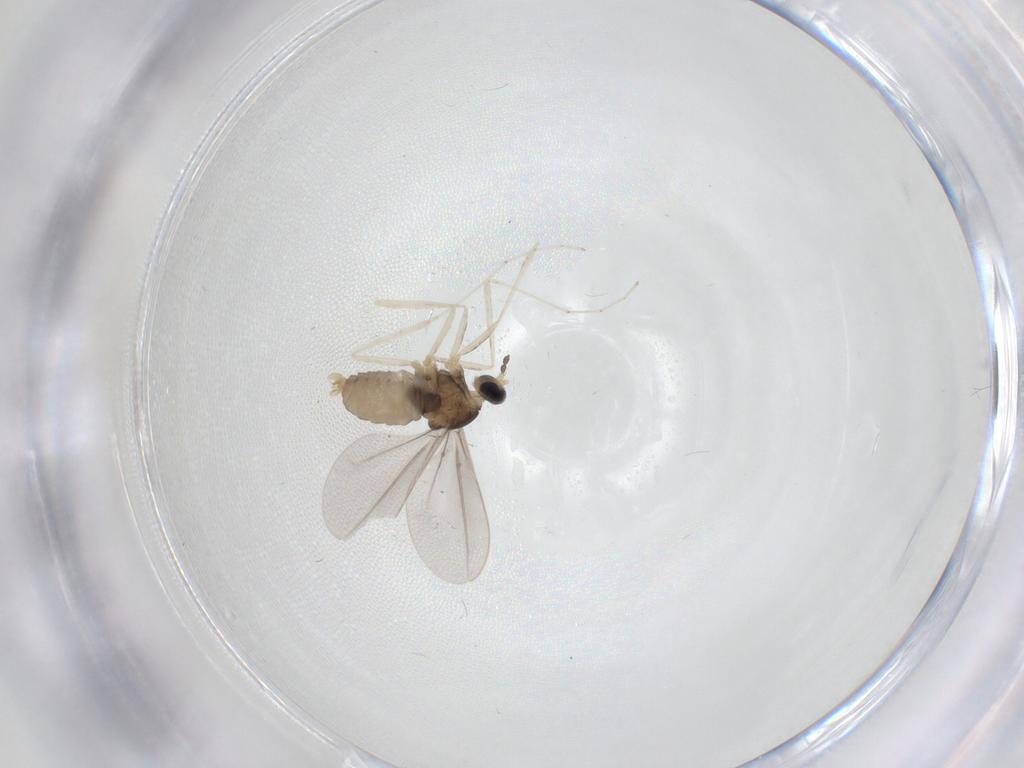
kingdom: Animalia
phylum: Arthropoda
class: Insecta
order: Diptera
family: Cecidomyiidae
